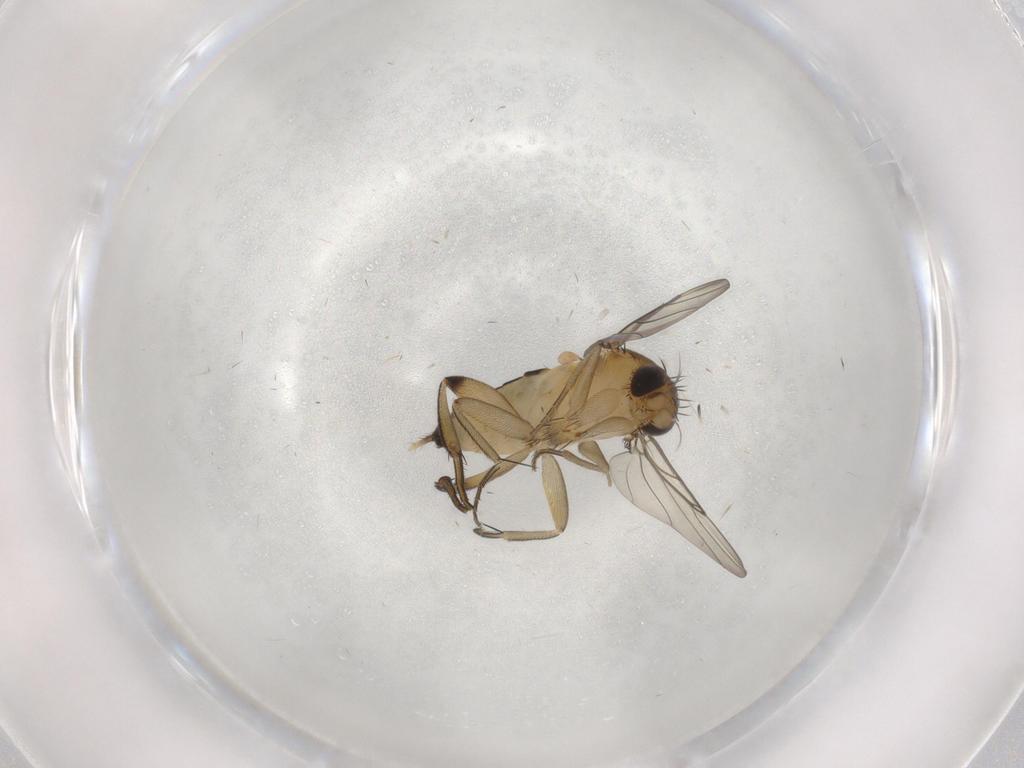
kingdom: Animalia
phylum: Arthropoda
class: Insecta
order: Diptera
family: Phoridae
